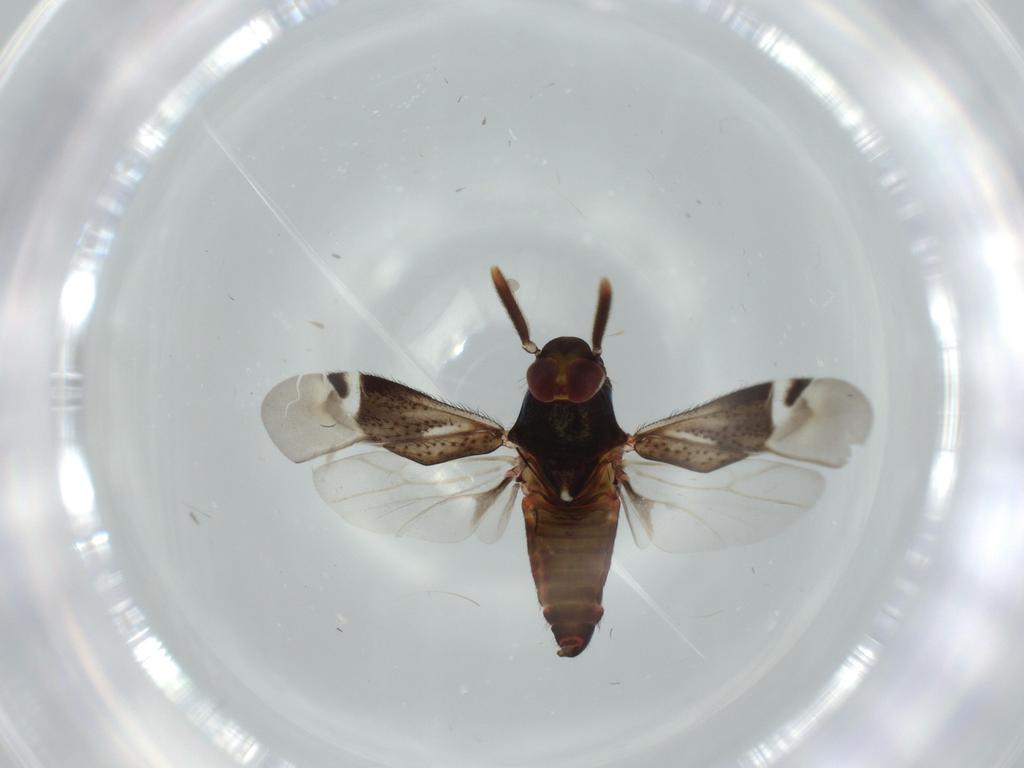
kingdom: Animalia
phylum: Arthropoda
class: Insecta
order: Hemiptera
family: Miridae
